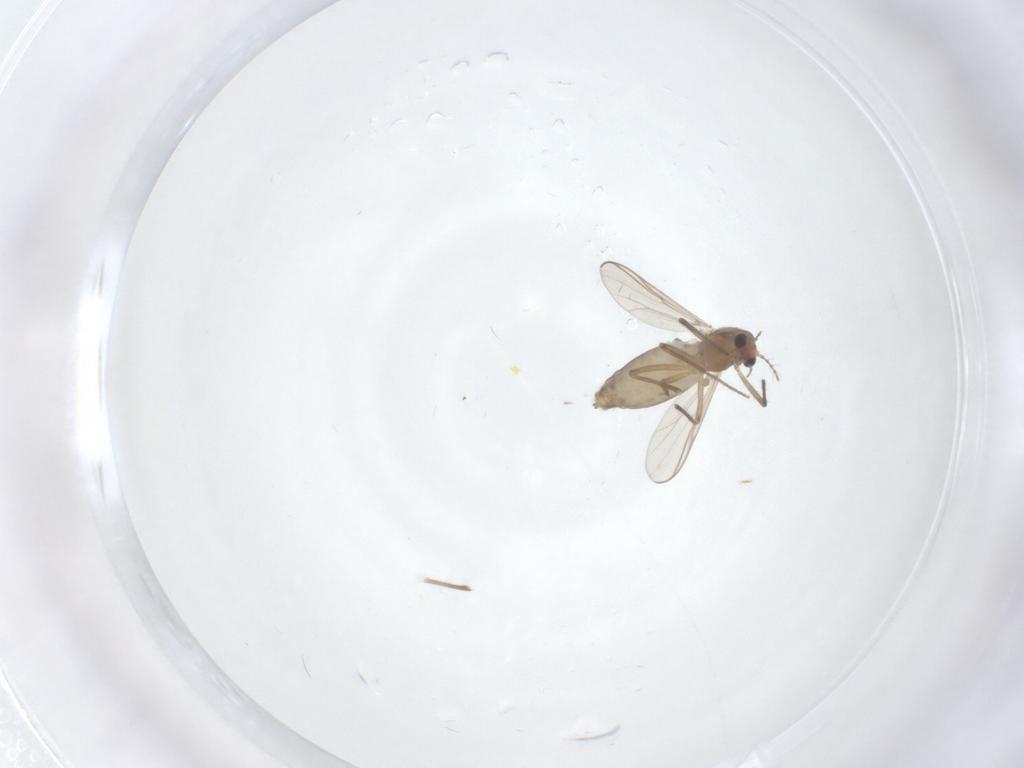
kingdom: Animalia
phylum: Arthropoda
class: Insecta
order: Diptera
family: Chironomidae
